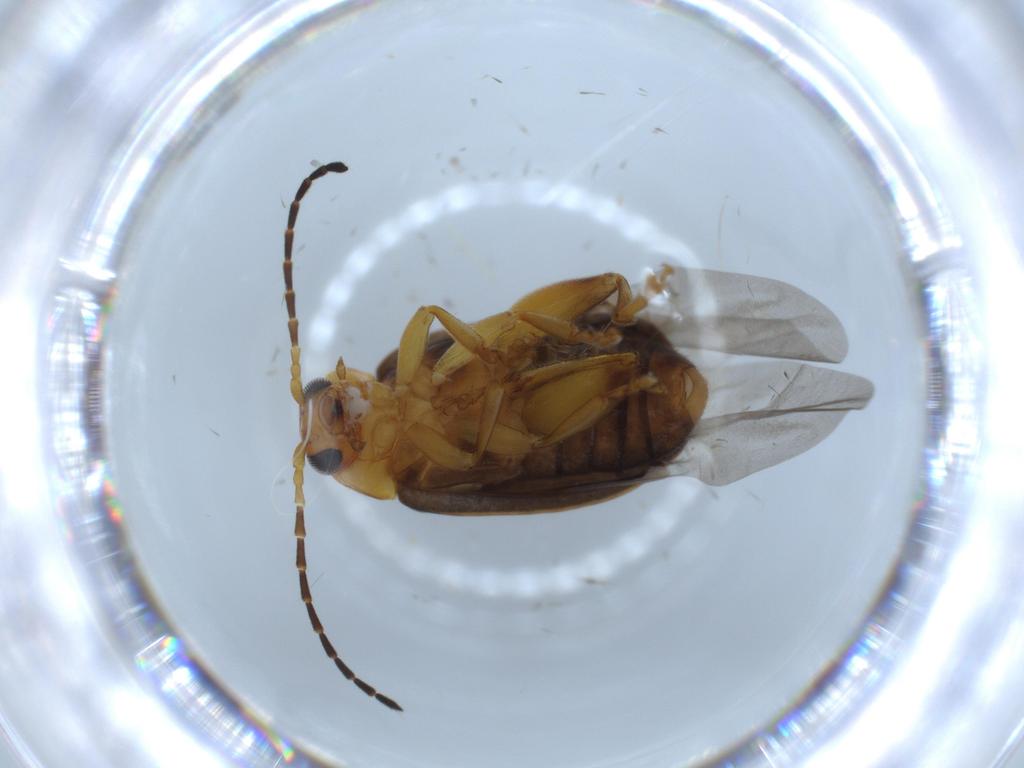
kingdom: Animalia
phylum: Arthropoda
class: Insecta
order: Coleoptera
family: Chrysomelidae
